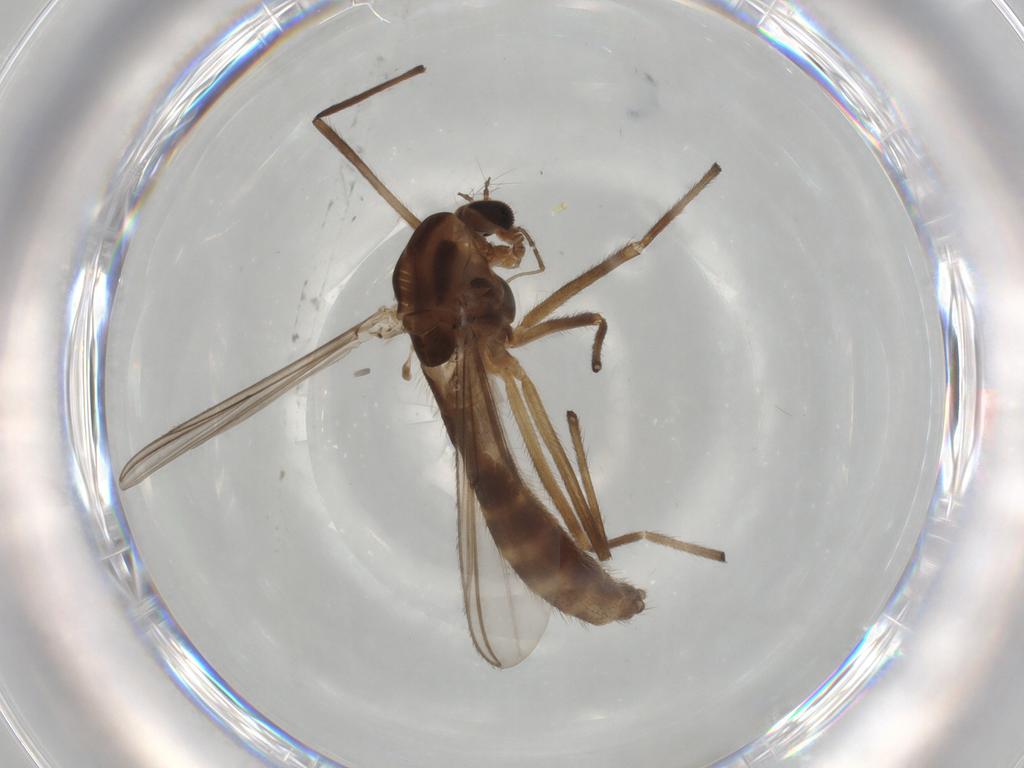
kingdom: Animalia
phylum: Arthropoda
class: Insecta
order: Diptera
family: Chironomidae
